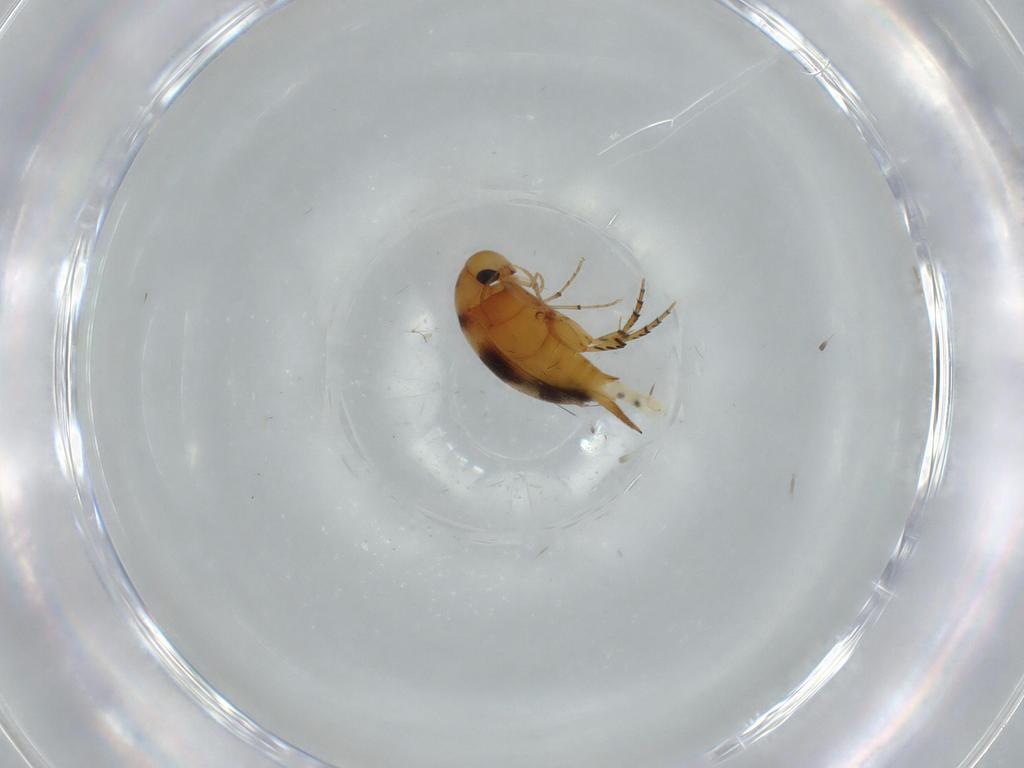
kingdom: Animalia
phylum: Arthropoda
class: Insecta
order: Coleoptera
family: Mordellidae
